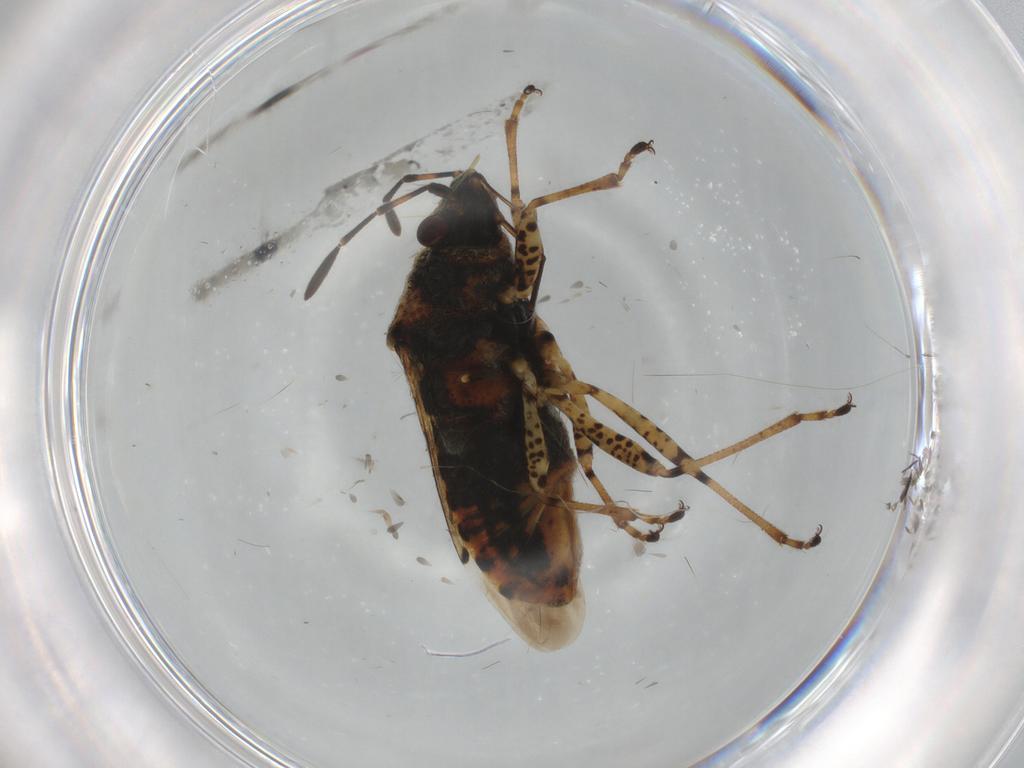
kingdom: Animalia
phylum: Arthropoda
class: Insecta
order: Hemiptera
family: Lygaeidae
